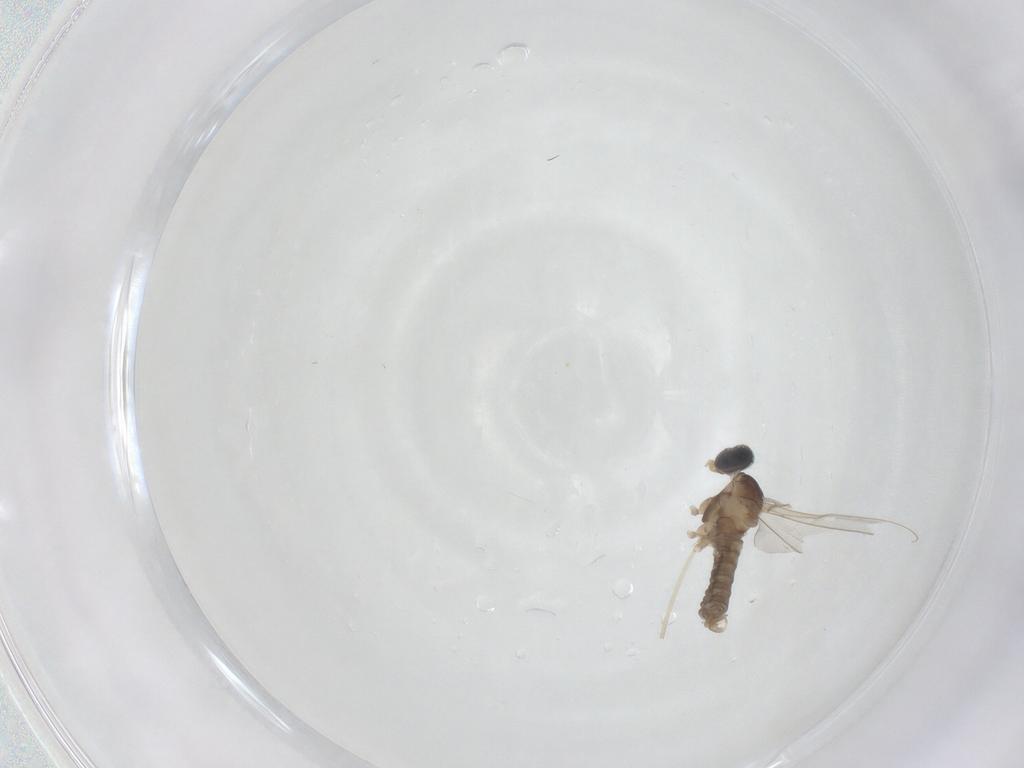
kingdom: Animalia
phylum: Arthropoda
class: Insecta
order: Diptera
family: Cecidomyiidae
